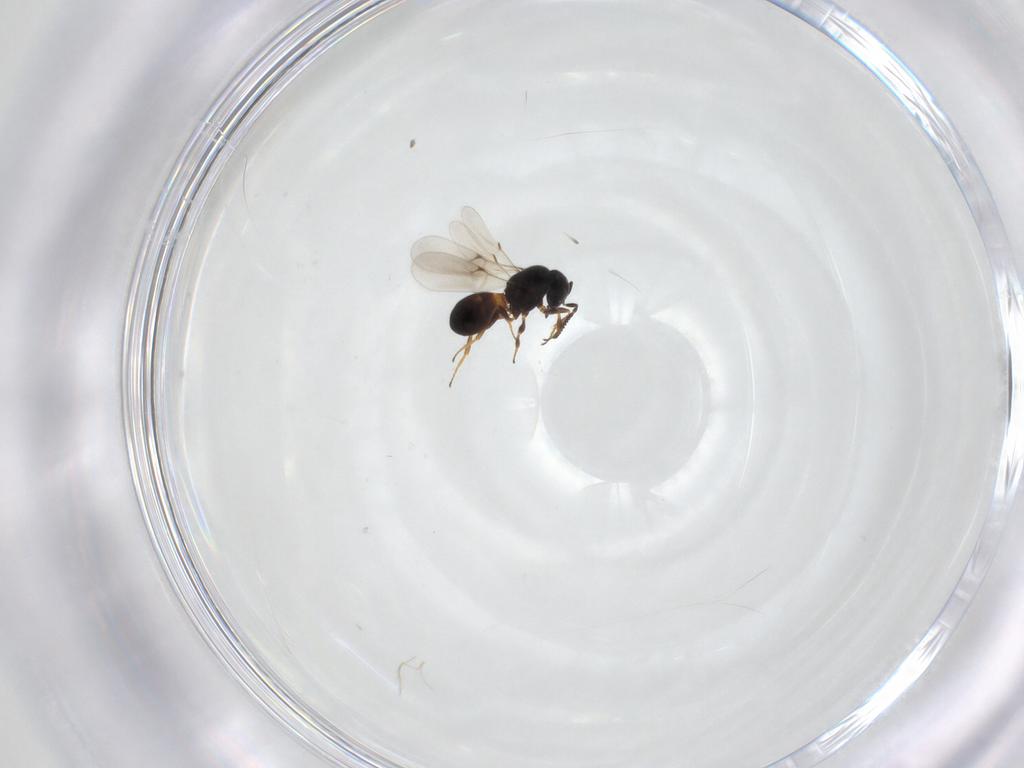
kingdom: Animalia
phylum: Arthropoda
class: Insecta
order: Hymenoptera
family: Scelionidae
